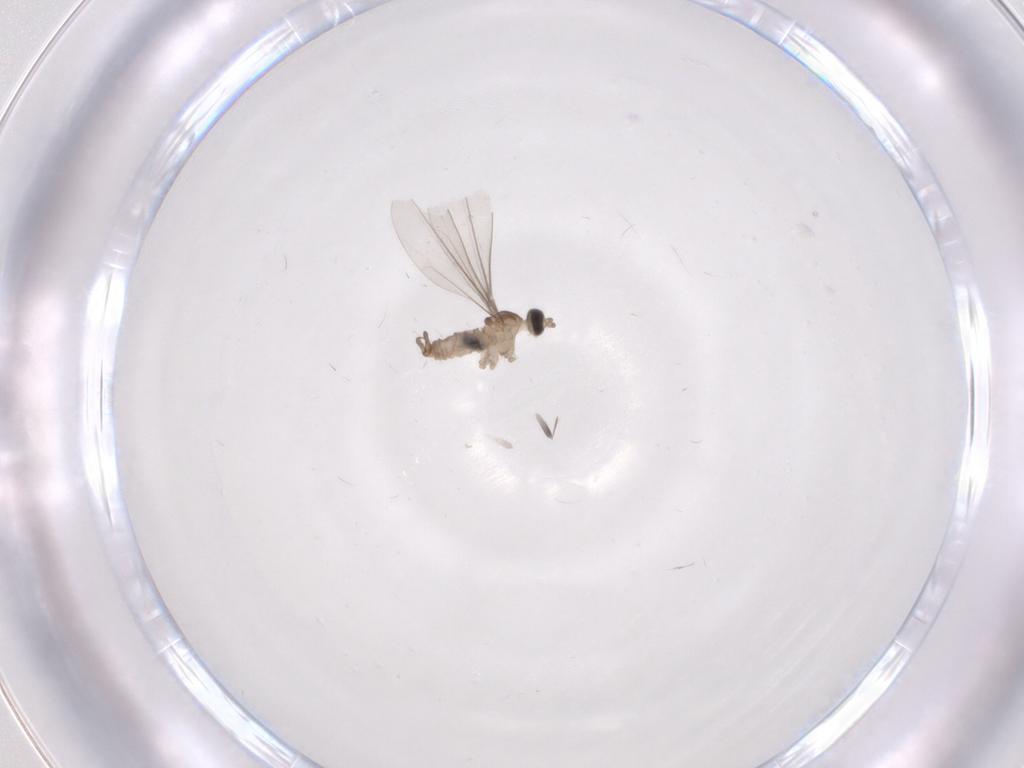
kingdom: Animalia
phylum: Arthropoda
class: Insecta
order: Diptera
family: Cecidomyiidae
